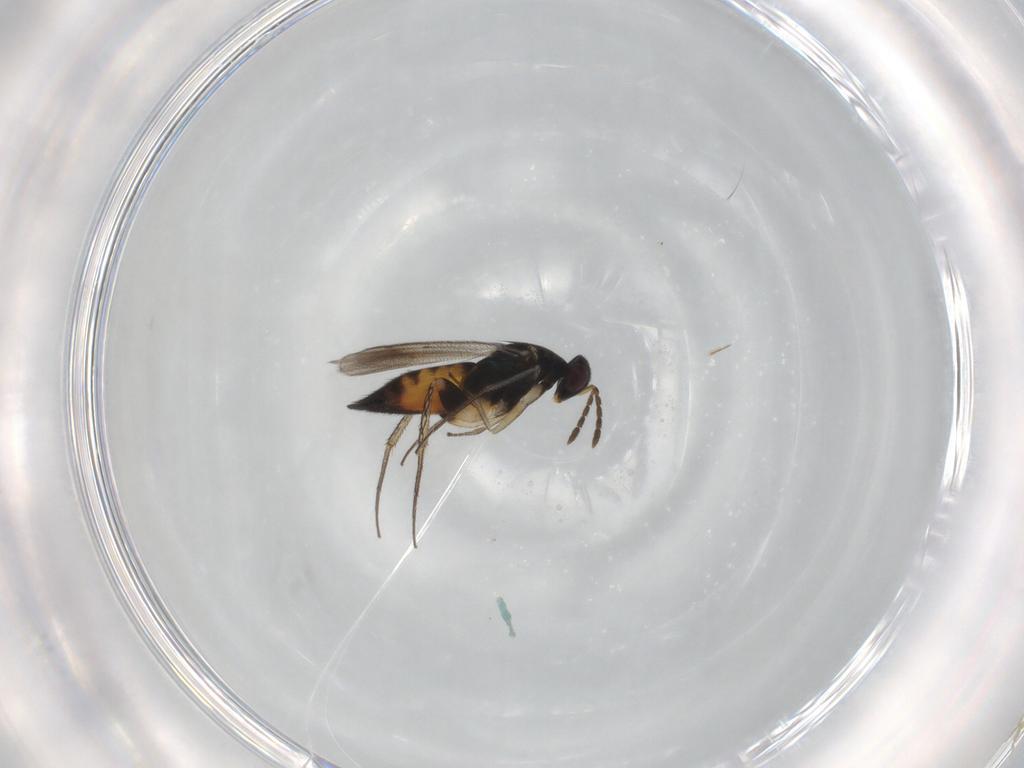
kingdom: Animalia
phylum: Arthropoda
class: Insecta
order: Hymenoptera
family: Eulophidae
